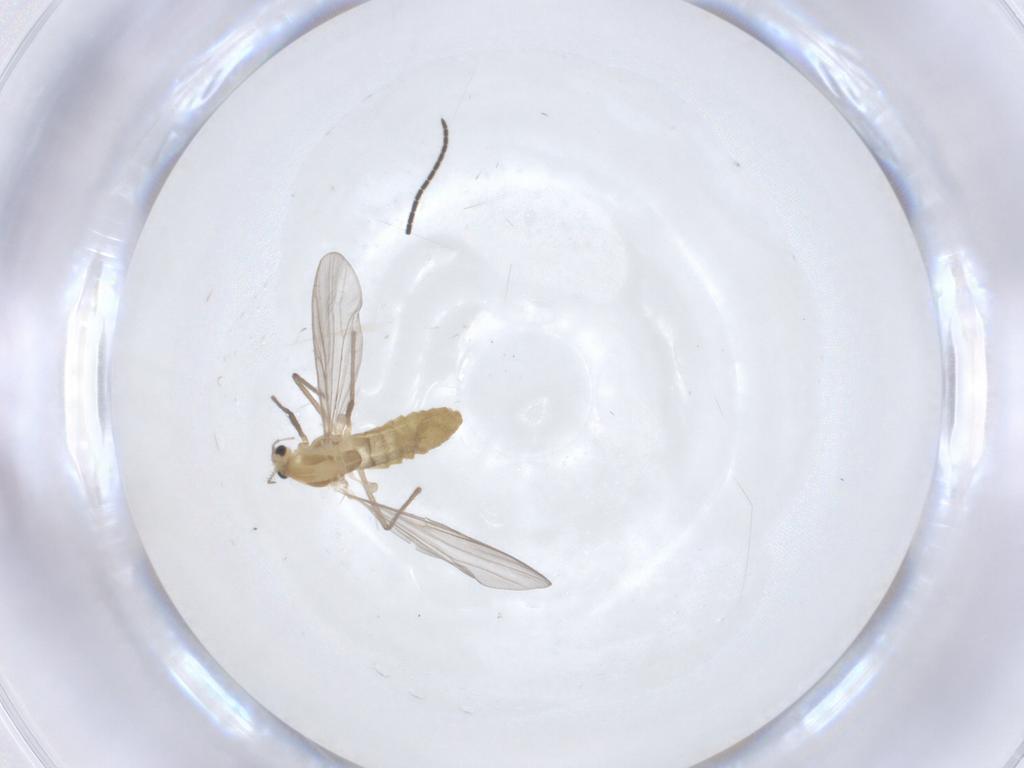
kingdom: Animalia
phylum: Arthropoda
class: Insecta
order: Diptera
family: Chironomidae
